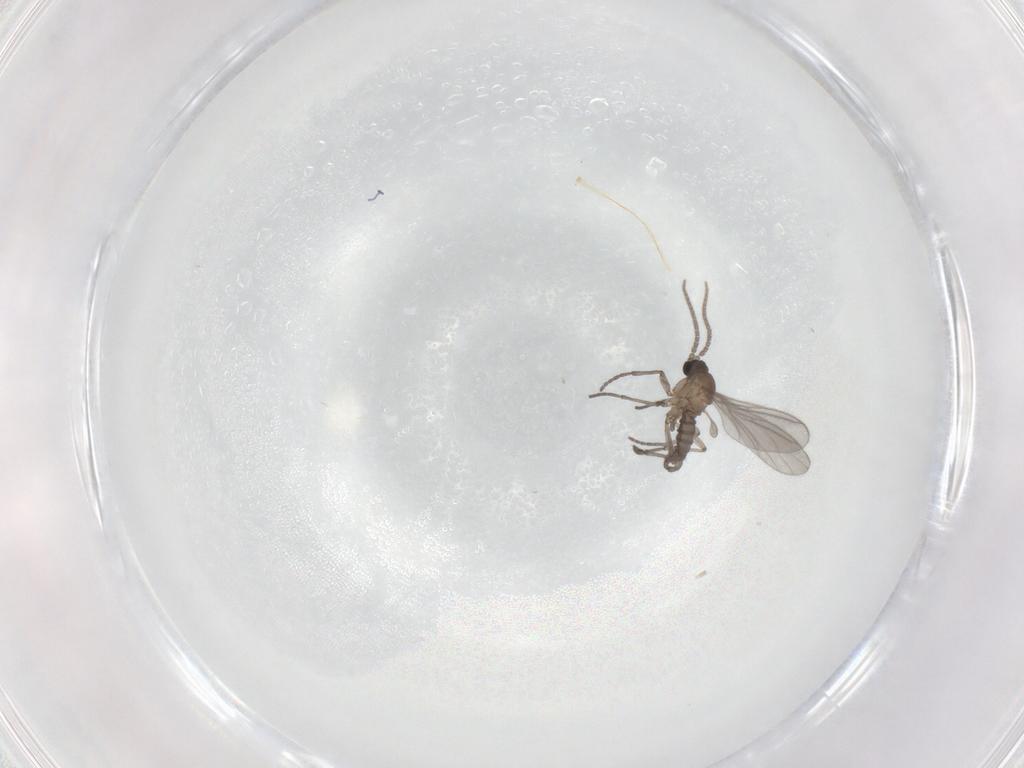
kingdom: Animalia
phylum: Arthropoda
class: Insecta
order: Diptera
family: Sciaridae
